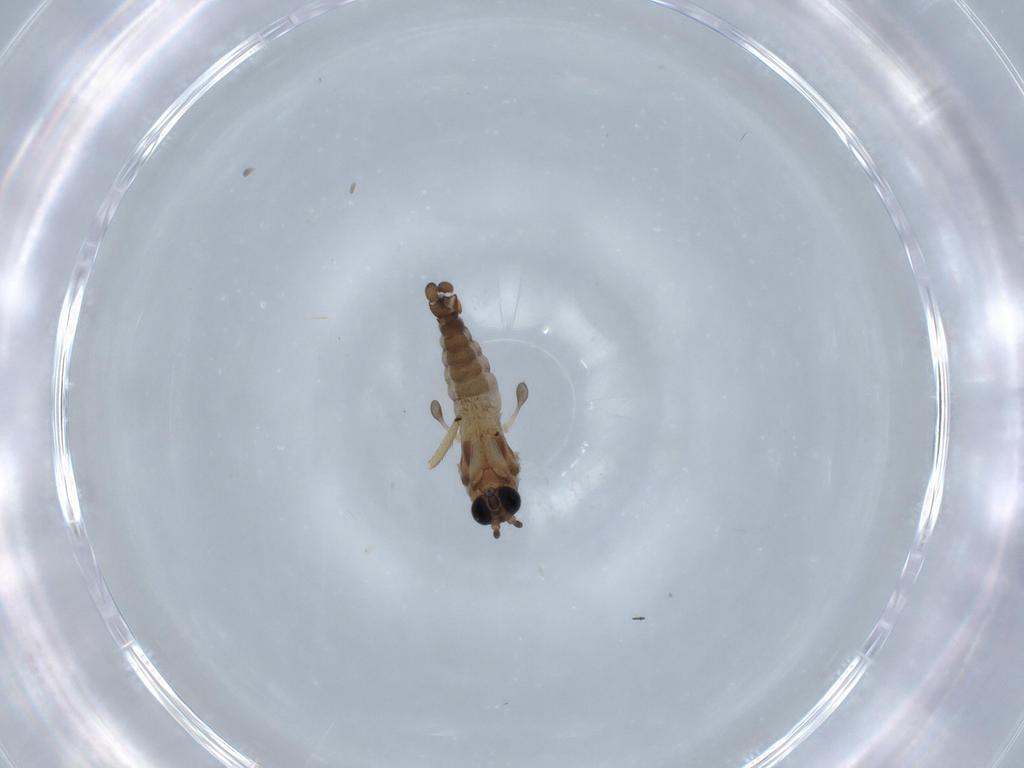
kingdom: Animalia
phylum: Arthropoda
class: Insecta
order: Diptera
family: Sciaridae
